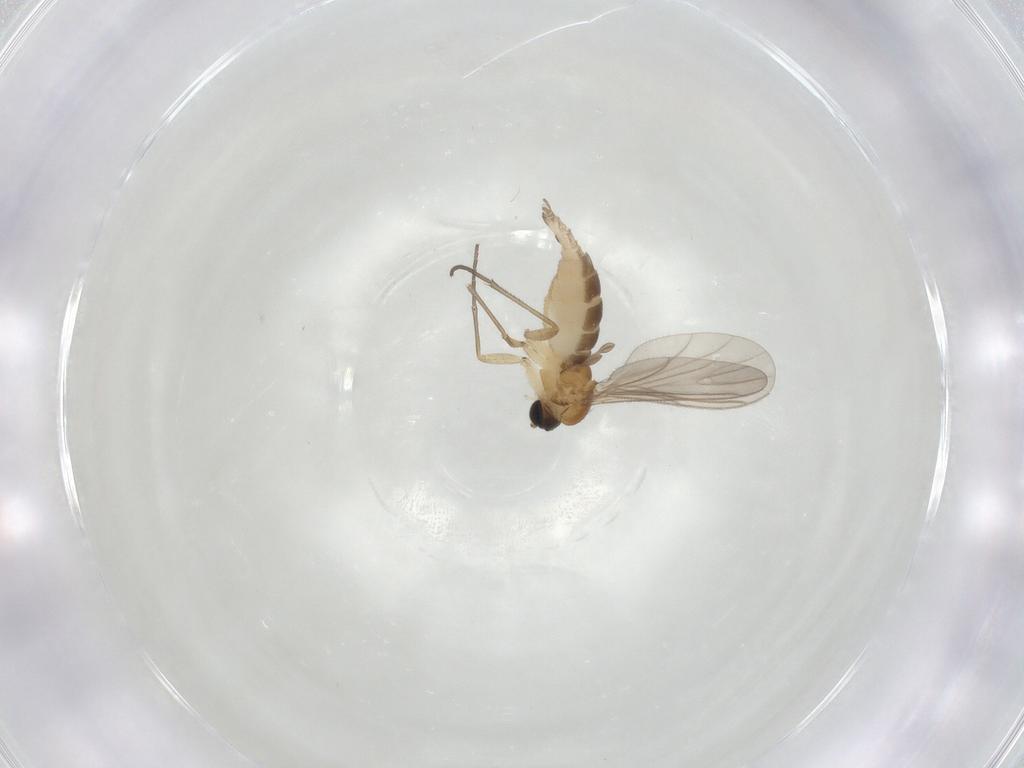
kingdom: Animalia
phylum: Arthropoda
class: Insecta
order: Diptera
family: Sciaridae
